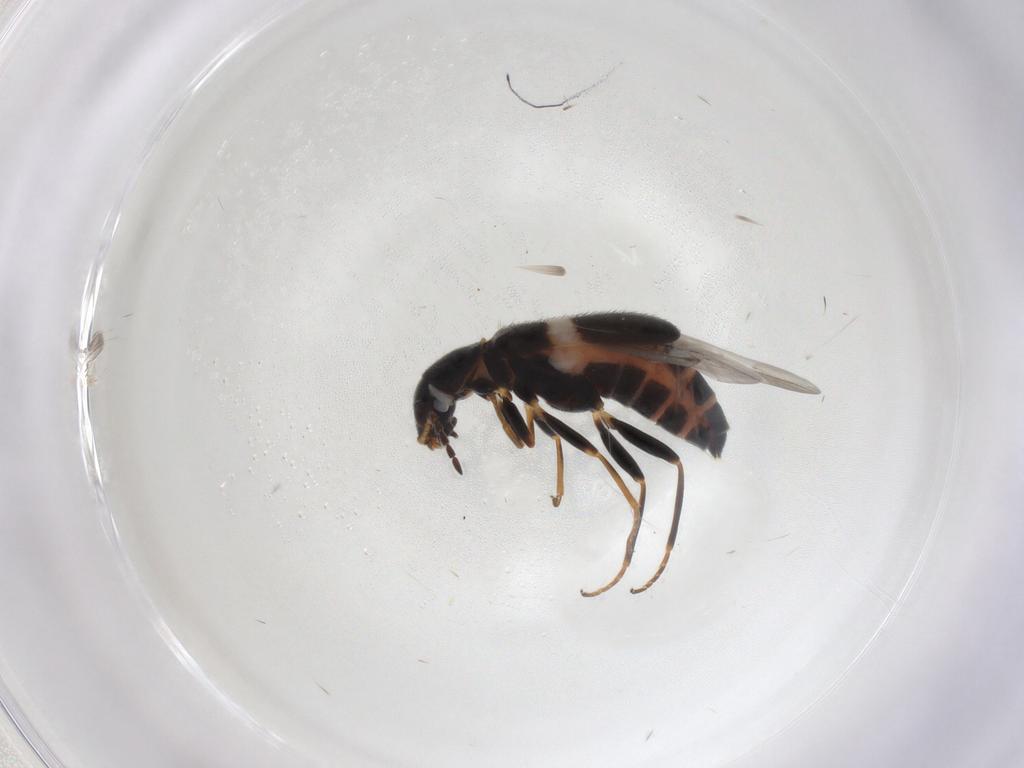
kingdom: Animalia
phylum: Arthropoda
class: Insecta
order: Coleoptera
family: Melyridae
